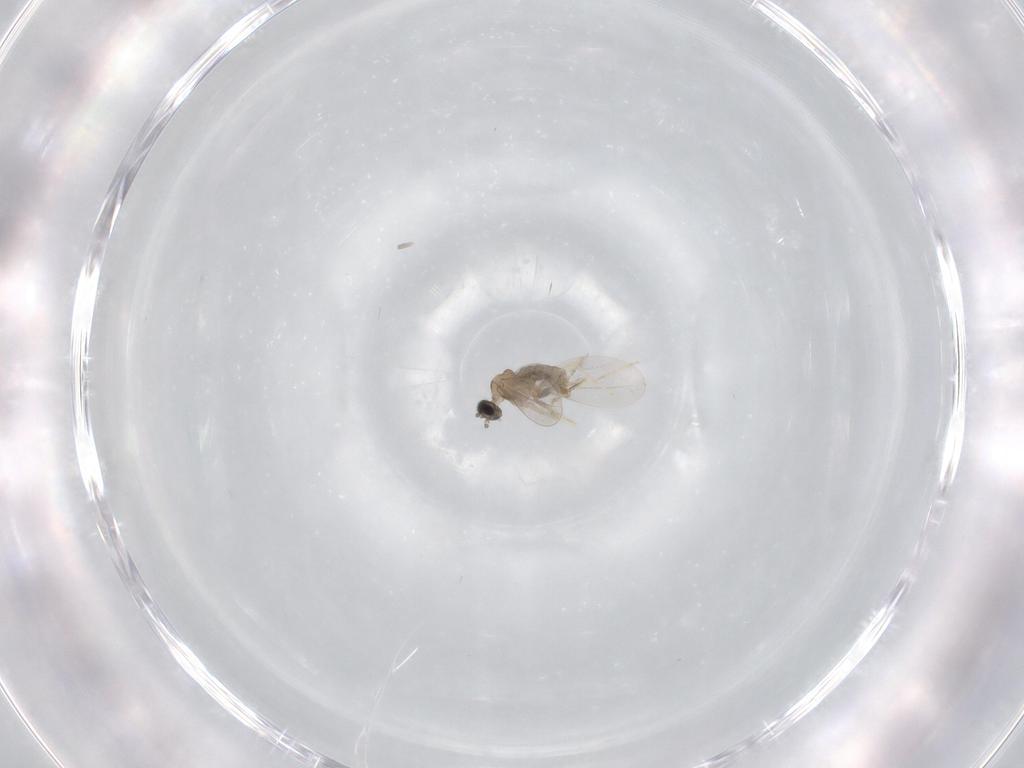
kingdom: Animalia
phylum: Arthropoda
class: Insecta
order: Diptera
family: Cecidomyiidae
